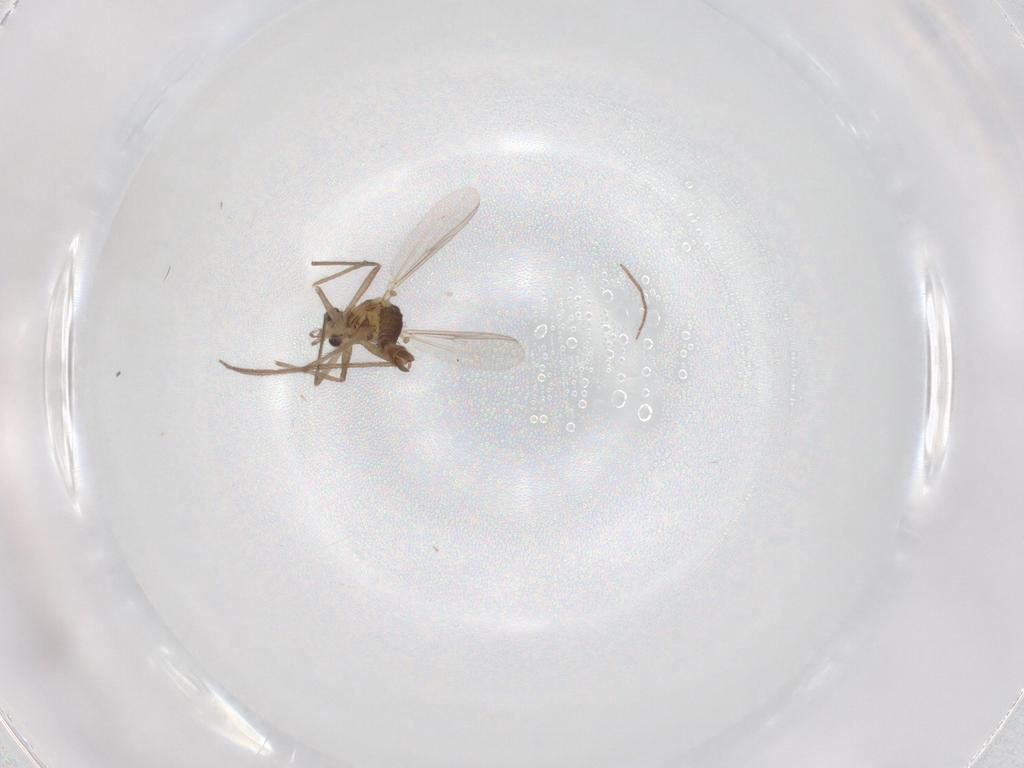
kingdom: Animalia
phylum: Arthropoda
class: Insecta
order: Diptera
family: Chironomidae
